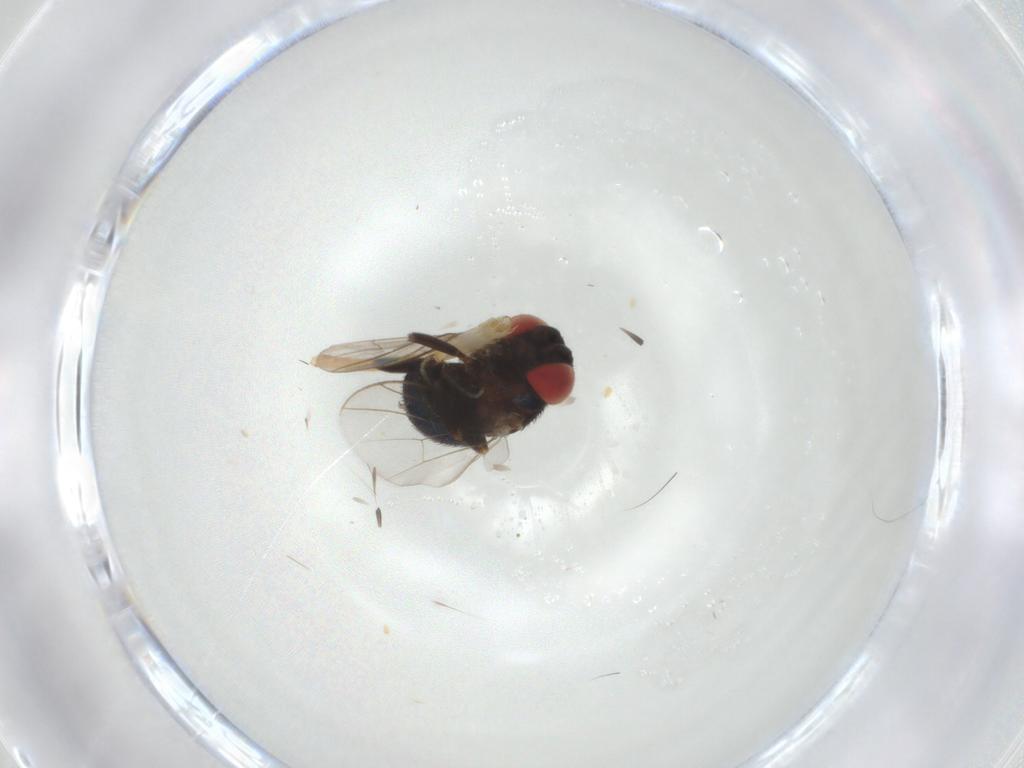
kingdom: Animalia
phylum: Arthropoda
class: Insecta
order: Diptera
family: Cryptochetidae
